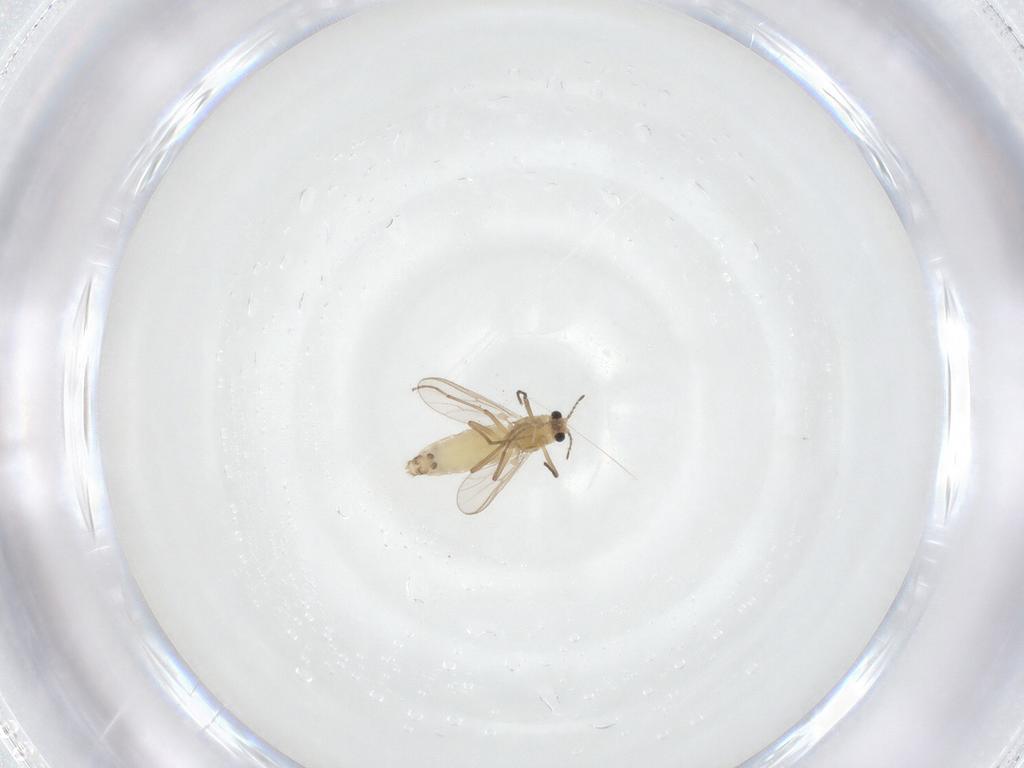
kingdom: Animalia
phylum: Arthropoda
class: Insecta
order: Diptera
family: Chironomidae
